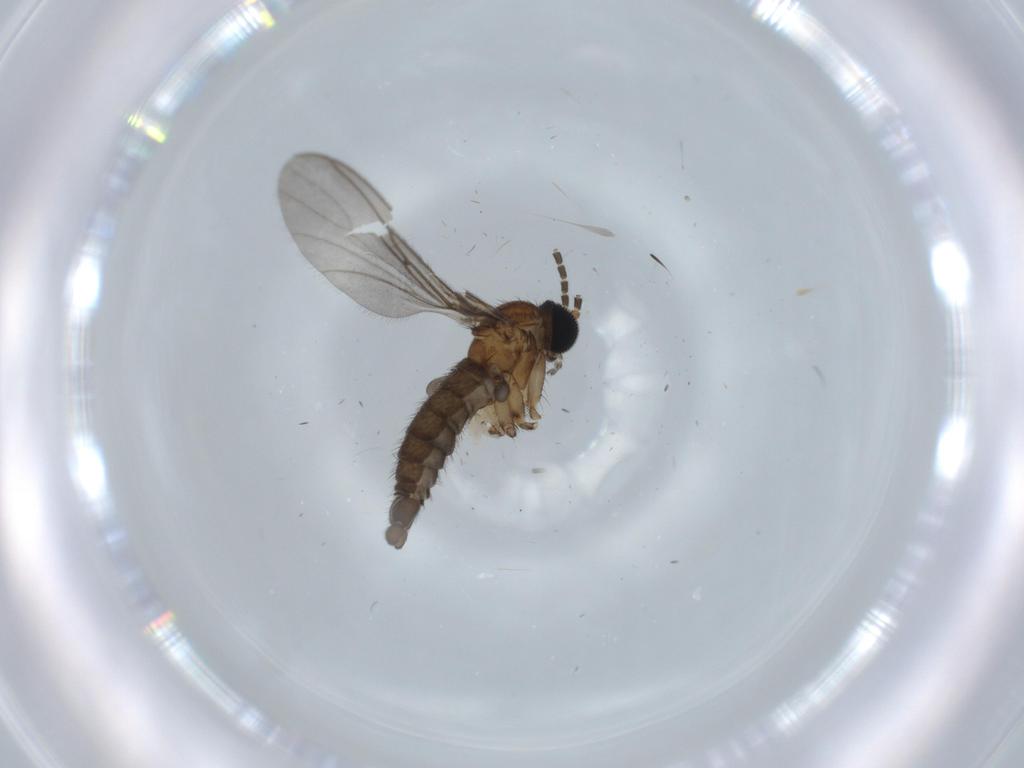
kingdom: Animalia
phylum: Arthropoda
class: Insecta
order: Diptera
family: Sciaridae
